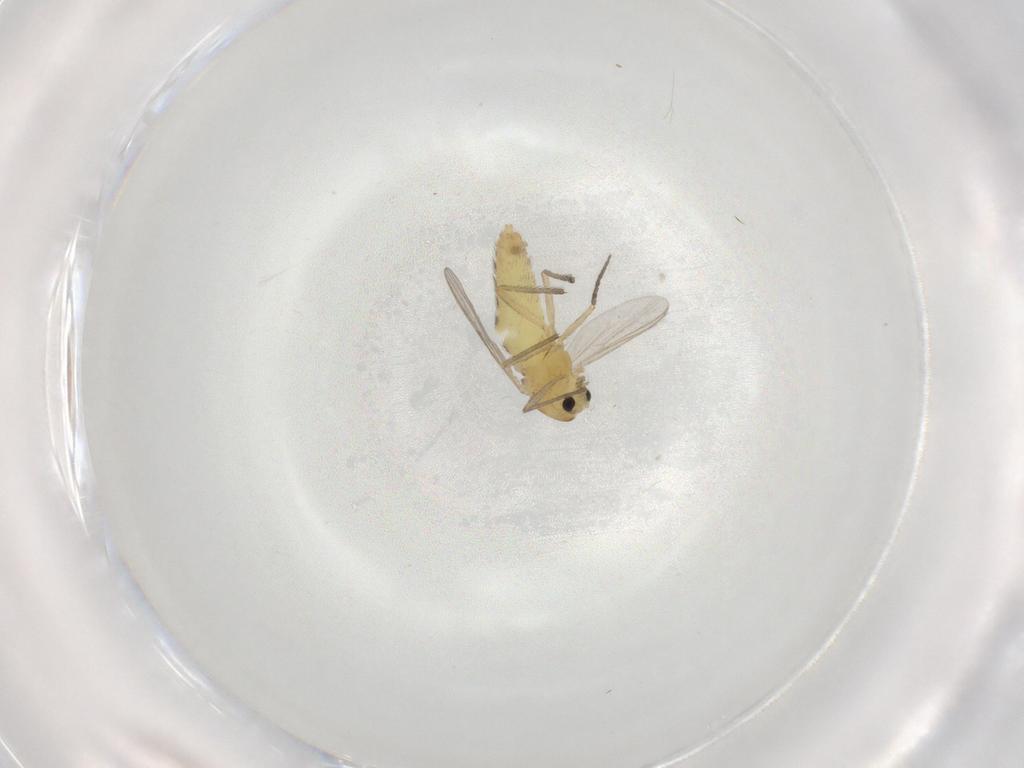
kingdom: Animalia
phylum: Arthropoda
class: Insecta
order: Diptera
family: Chironomidae
